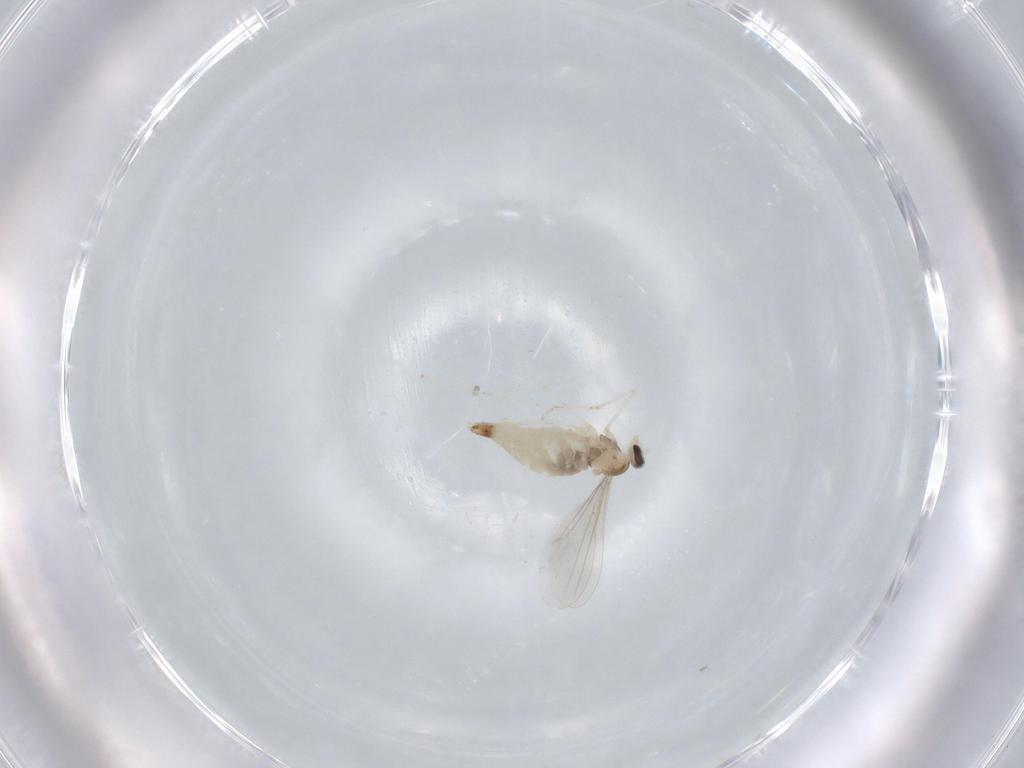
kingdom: Animalia
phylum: Arthropoda
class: Insecta
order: Diptera
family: Cecidomyiidae
